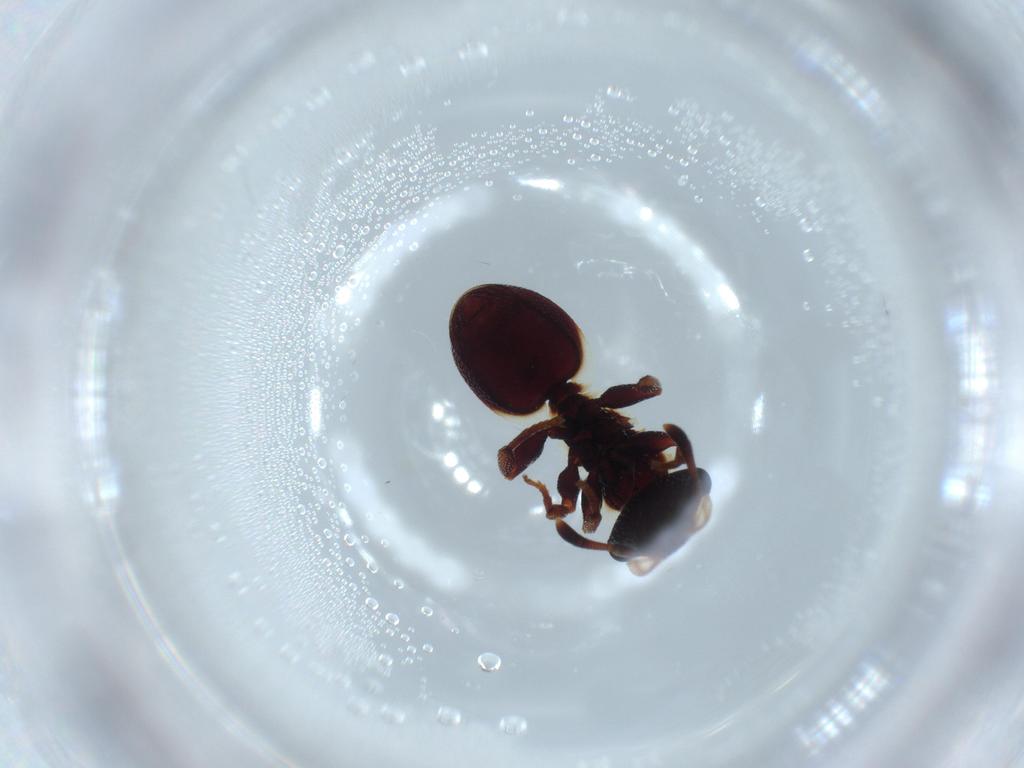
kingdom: Animalia
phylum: Arthropoda
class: Insecta
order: Hymenoptera
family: Formicidae
